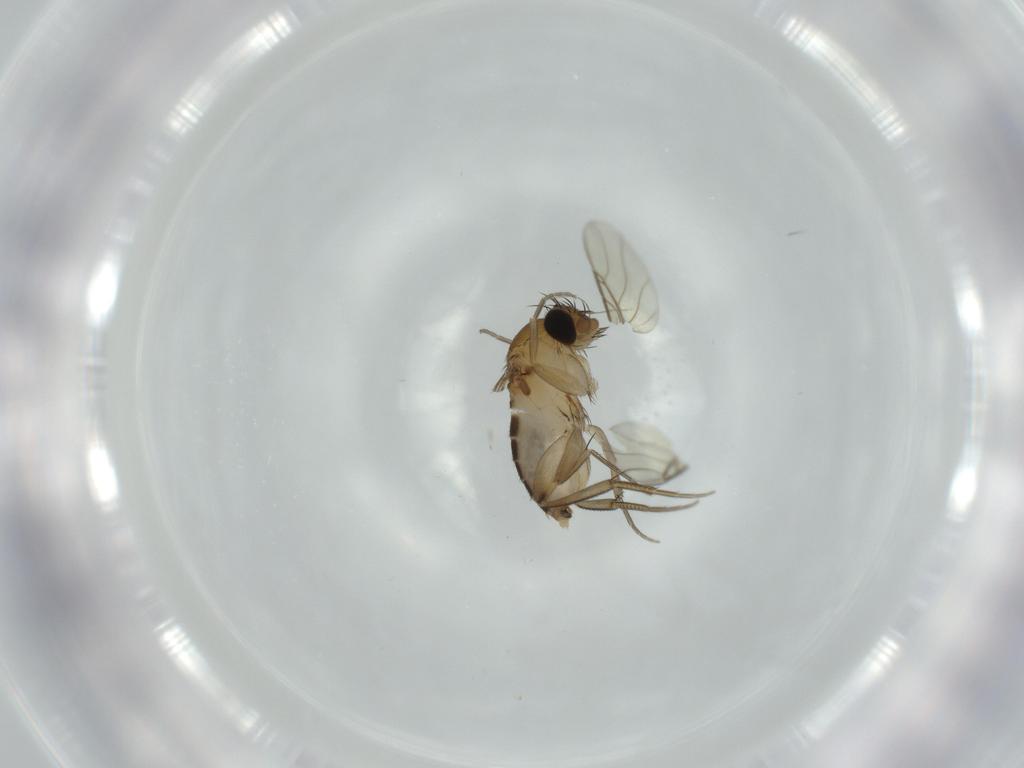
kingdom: Animalia
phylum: Arthropoda
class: Insecta
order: Diptera
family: Phoridae
